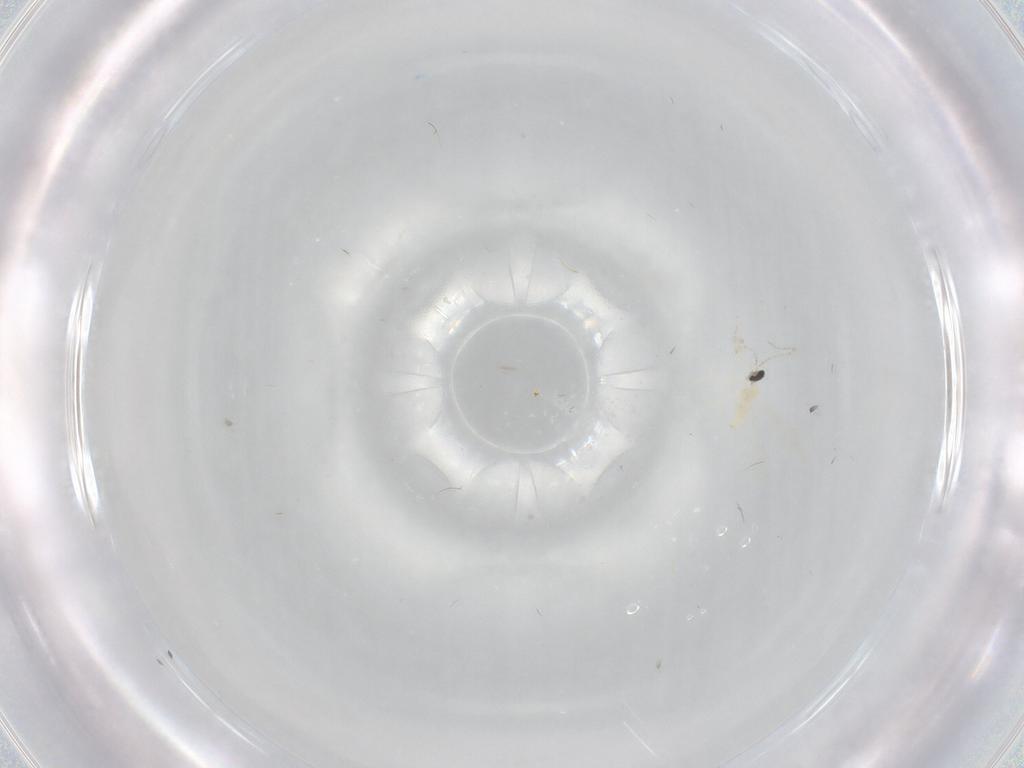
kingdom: Animalia
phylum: Arthropoda
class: Insecta
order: Diptera
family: Cecidomyiidae
